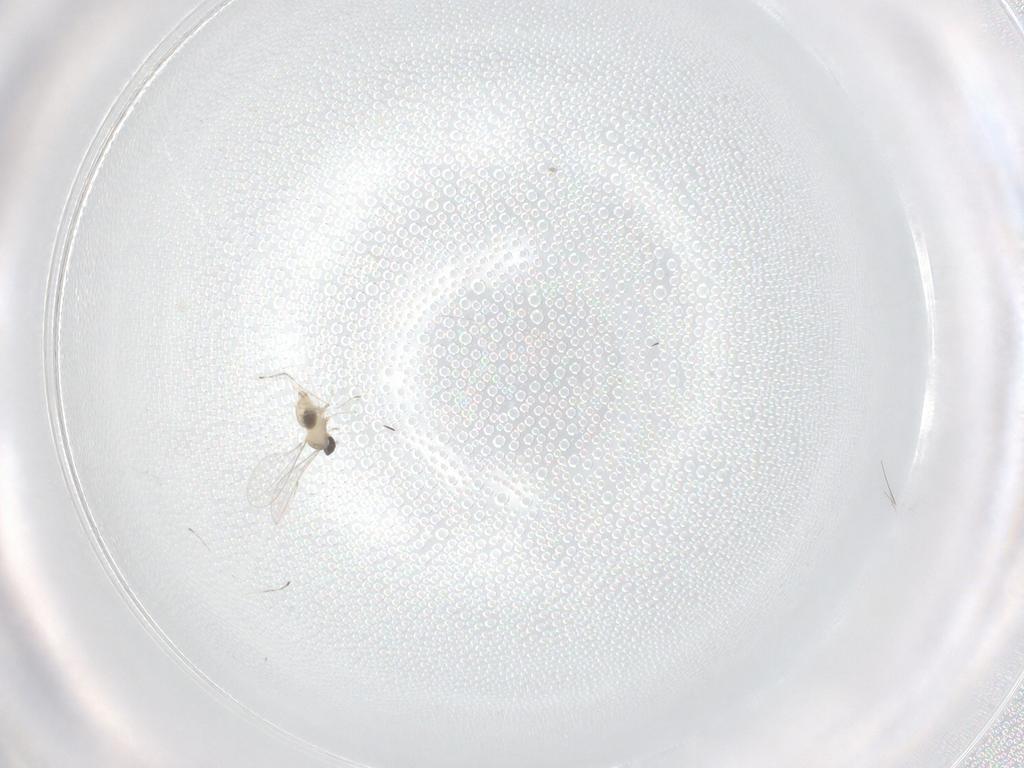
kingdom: Animalia
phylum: Arthropoda
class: Insecta
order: Diptera
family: Cecidomyiidae
